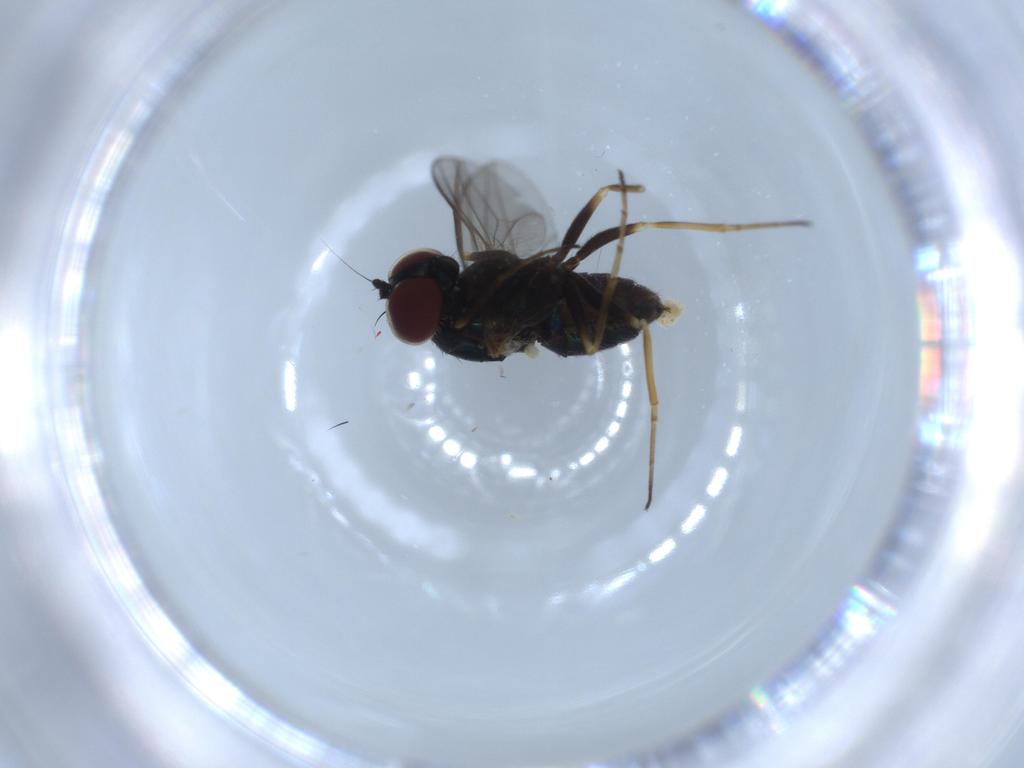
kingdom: Animalia
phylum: Arthropoda
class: Insecta
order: Diptera
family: Dolichopodidae
